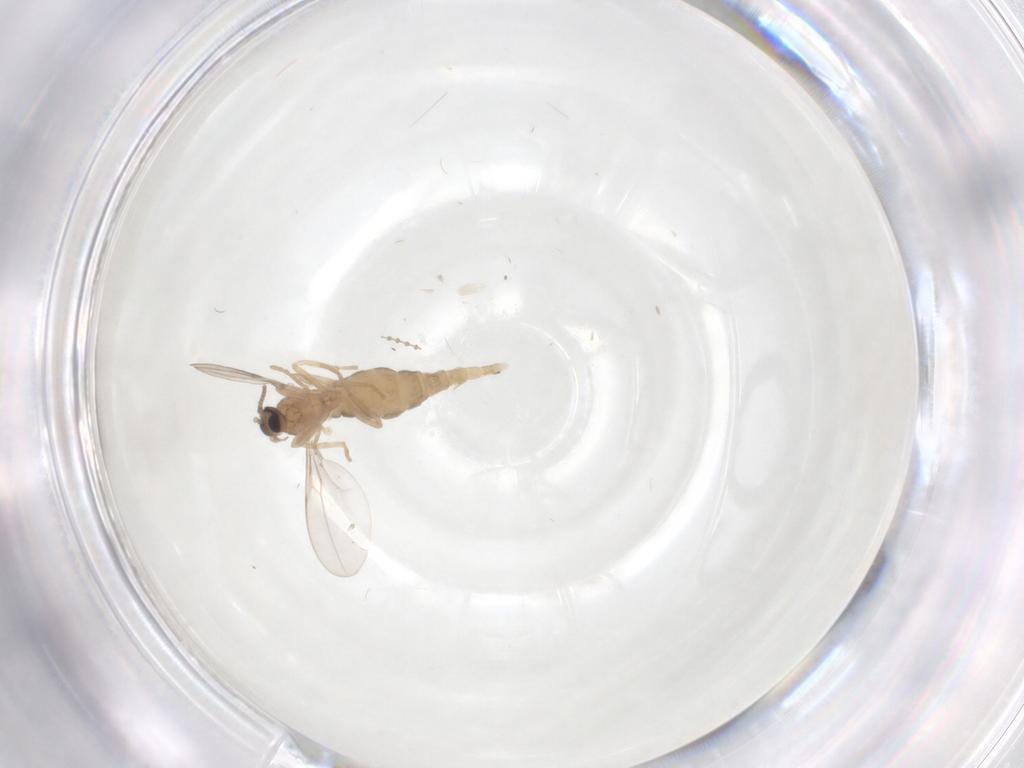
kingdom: Animalia
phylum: Arthropoda
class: Insecta
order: Diptera
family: Cecidomyiidae
